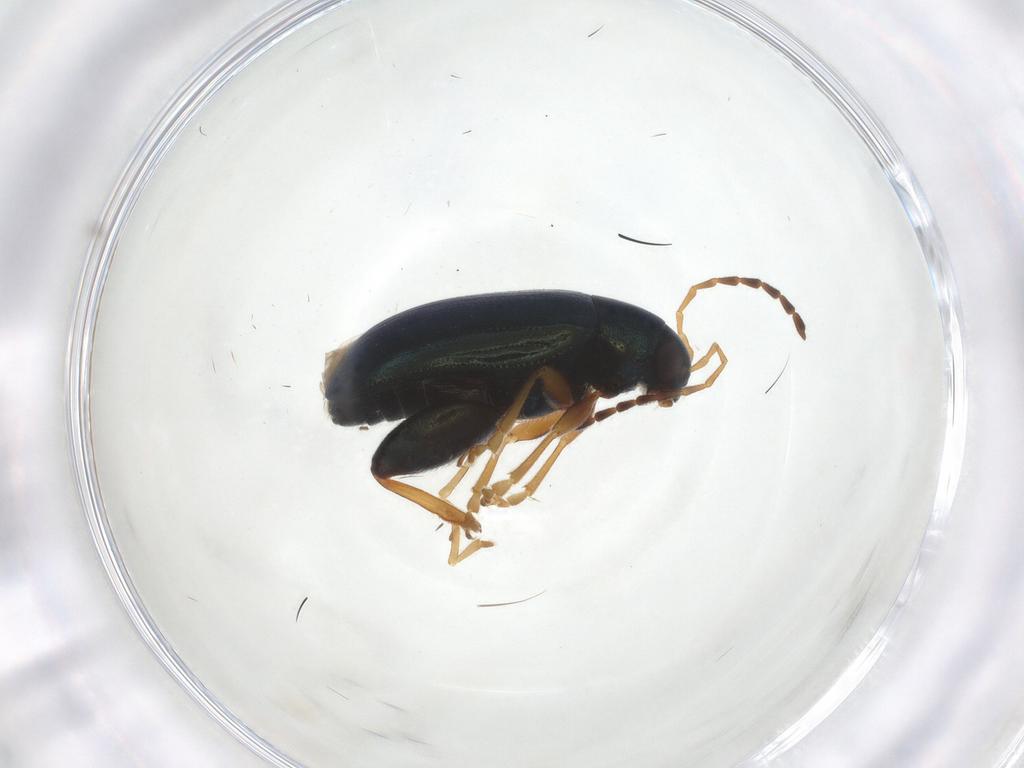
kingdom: Animalia
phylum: Arthropoda
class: Insecta
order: Coleoptera
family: Chrysomelidae
